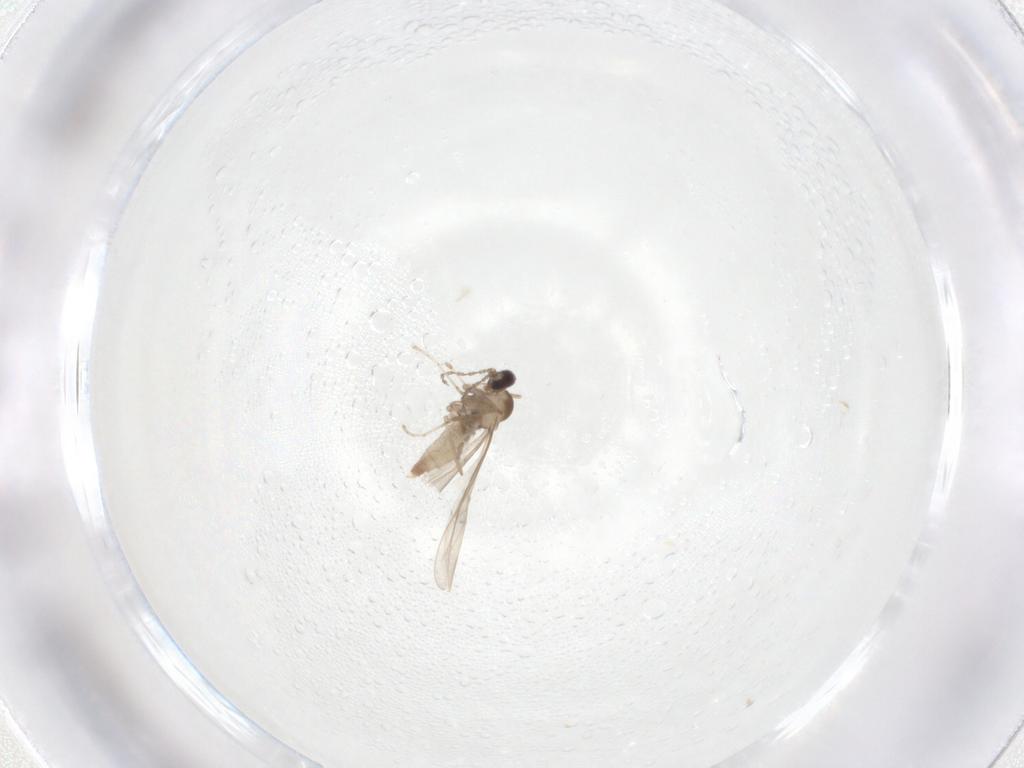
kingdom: Animalia
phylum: Arthropoda
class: Insecta
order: Diptera
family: Cecidomyiidae
